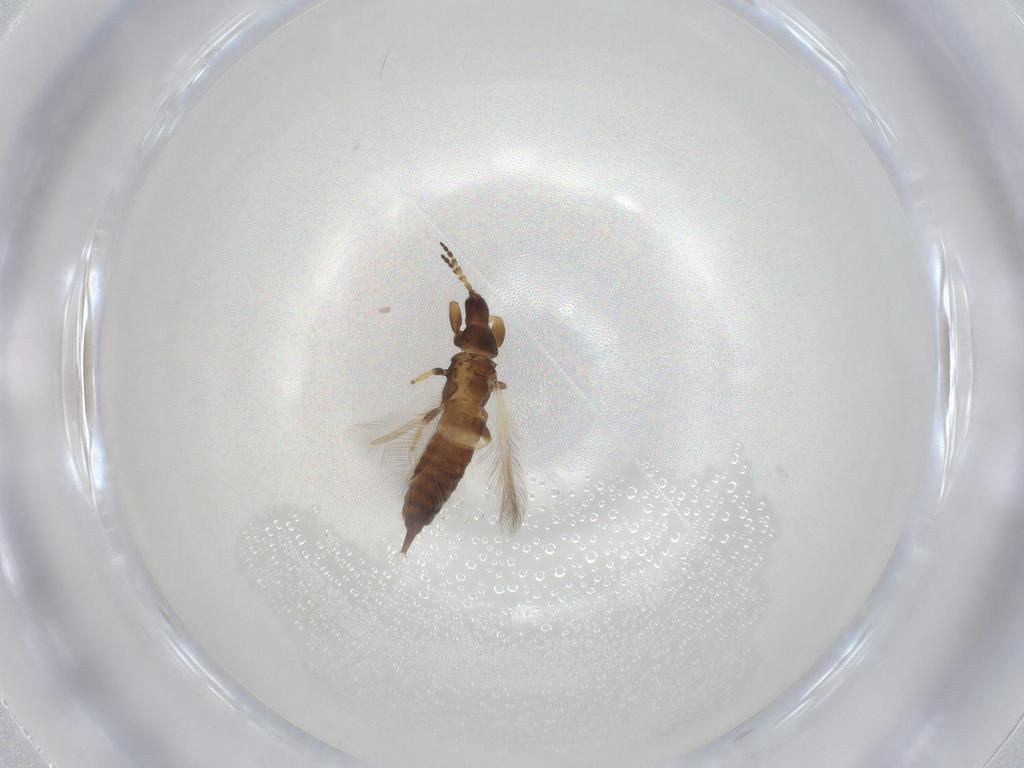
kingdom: Animalia
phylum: Arthropoda
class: Insecta
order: Thysanoptera
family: Phlaeothripidae
